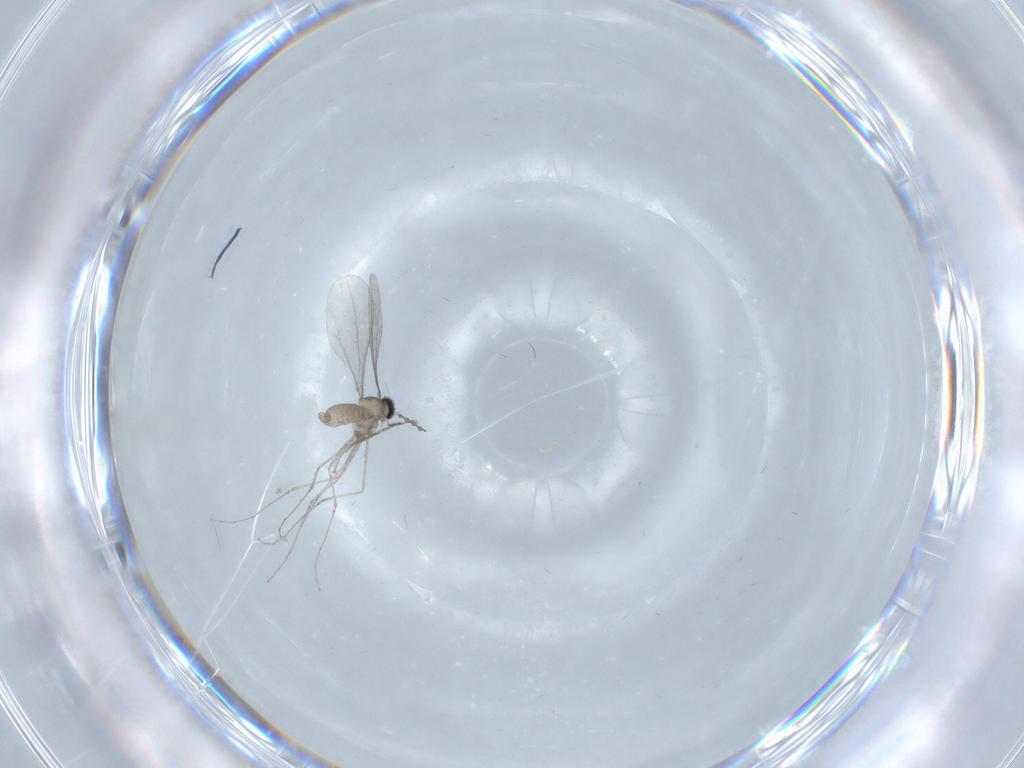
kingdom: Animalia
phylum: Arthropoda
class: Insecta
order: Diptera
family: Cecidomyiidae
